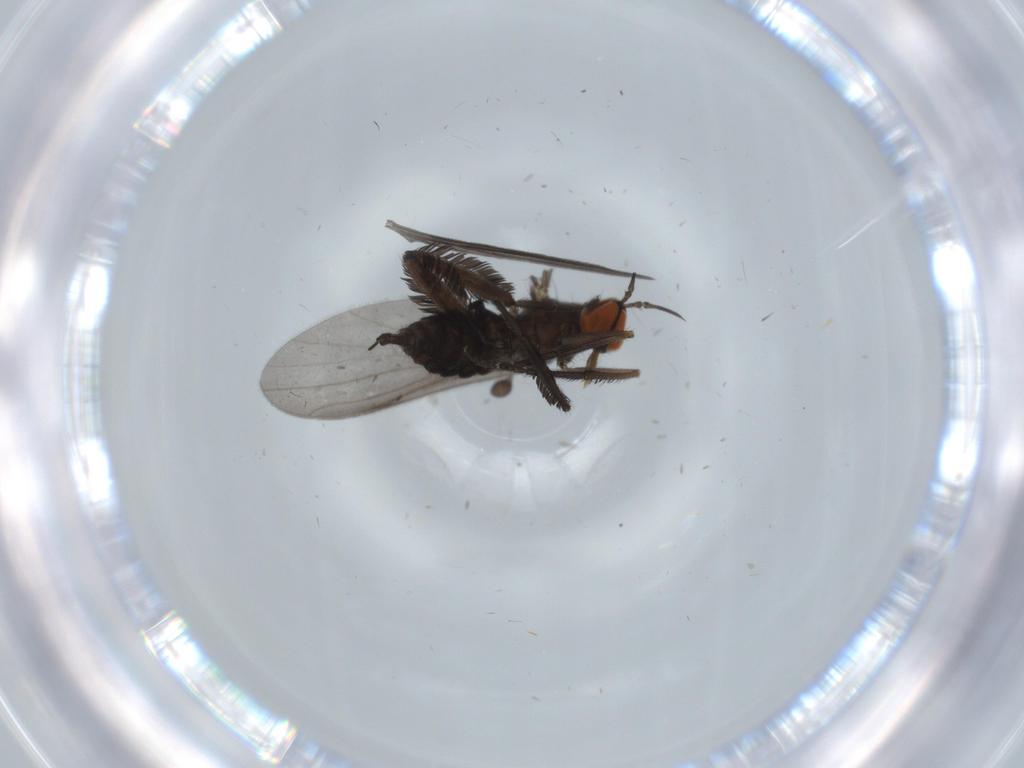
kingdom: Animalia
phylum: Arthropoda
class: Insecta
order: Diptera
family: Empididae
